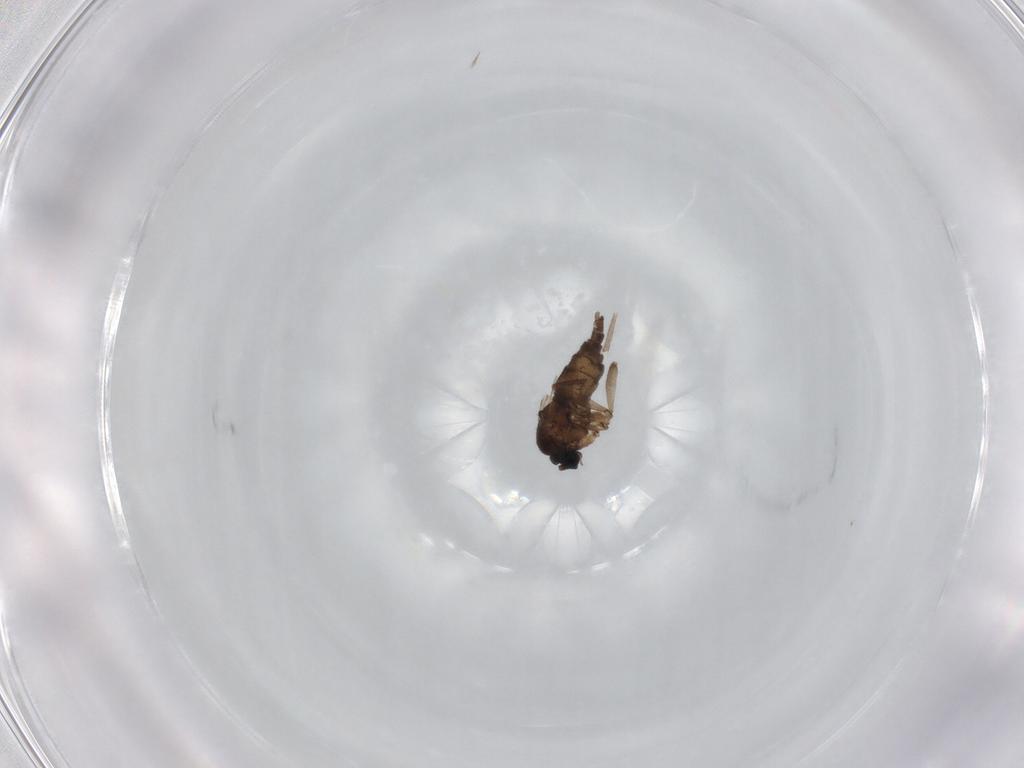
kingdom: Animalia
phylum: Arthropoda
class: Insecta
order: Diptera
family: Sciaridae
